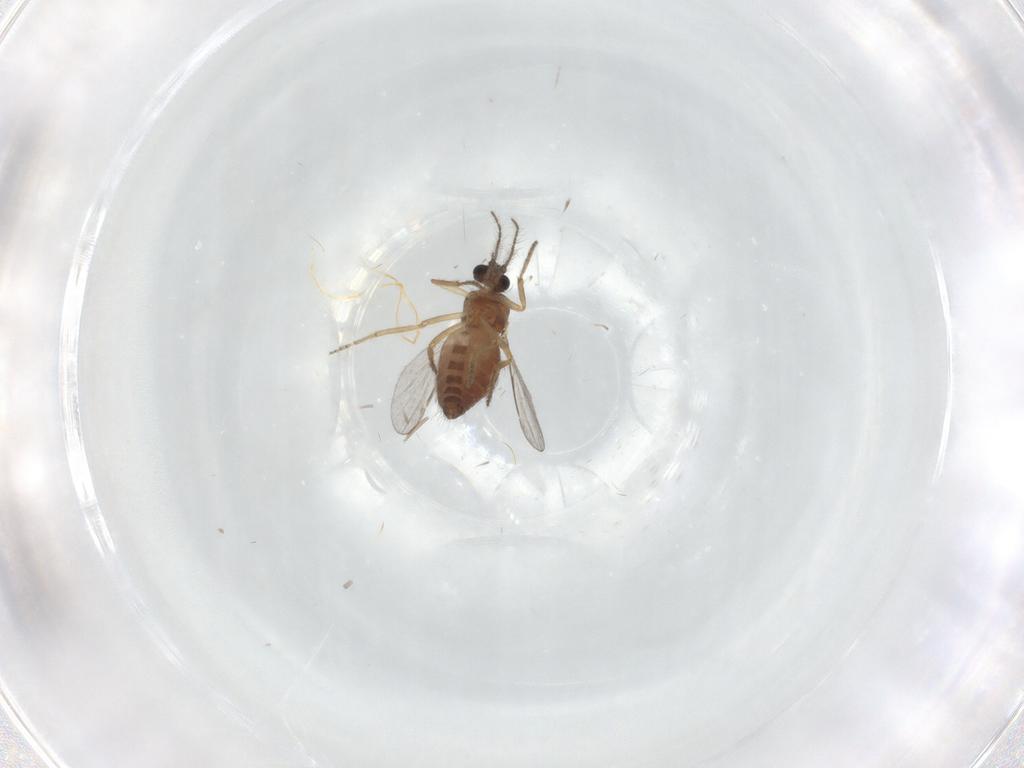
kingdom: Animalia
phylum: Arthropoda
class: Insecta
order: Diptera
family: Ceratopogonidae
